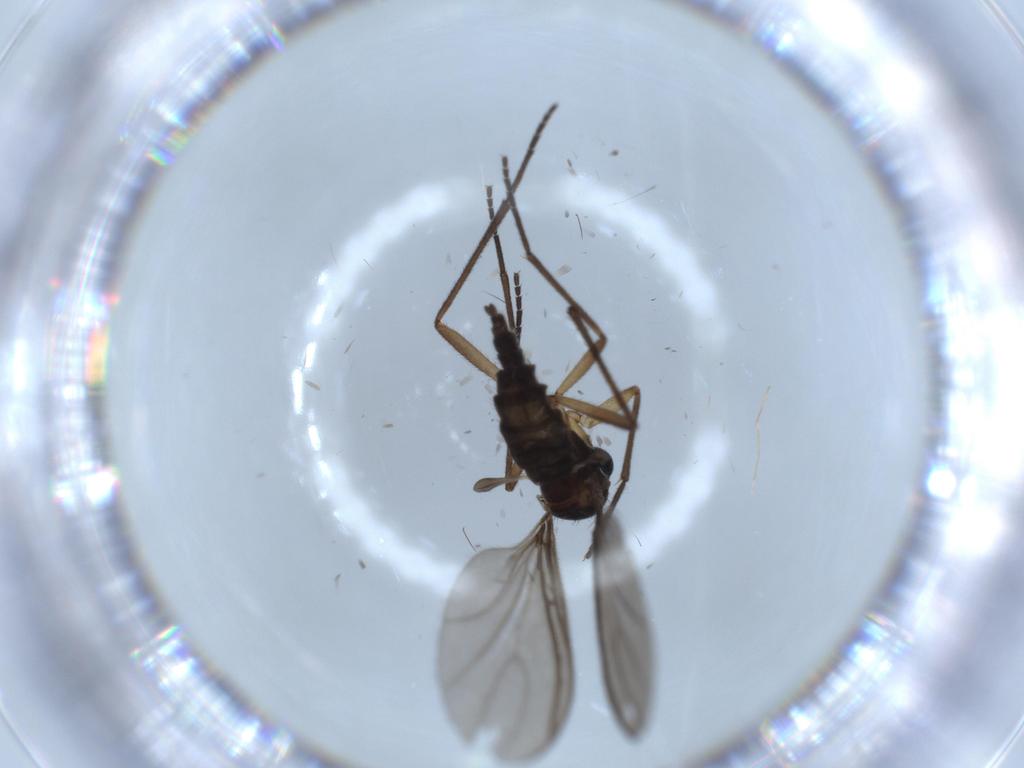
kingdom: Animalia
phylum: Arthropoda
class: Insecta
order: Diptera
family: Sciaridae
